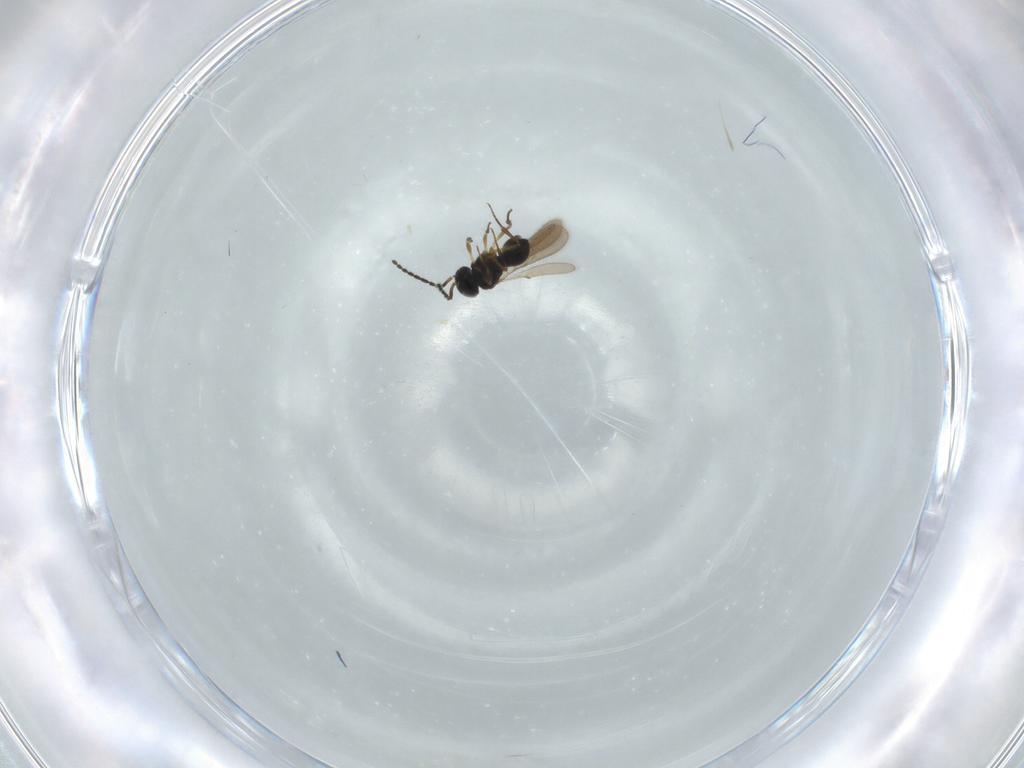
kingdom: Animalia
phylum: Arthropoda
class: Insecta
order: Hymenoptera
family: Scelionidae
